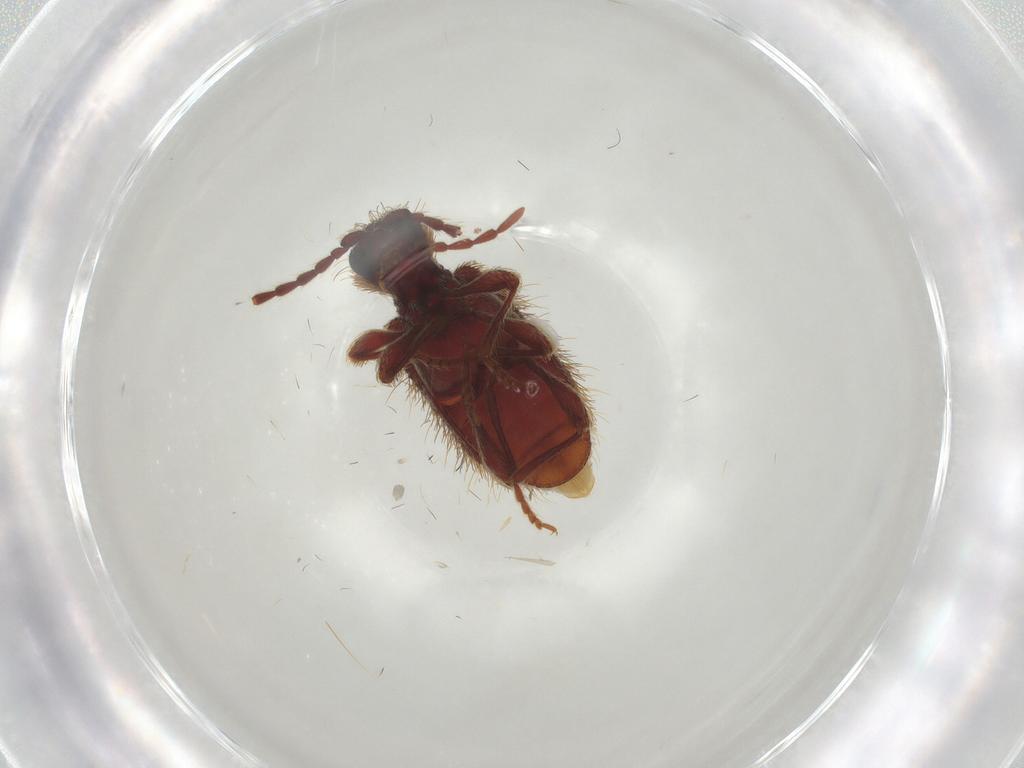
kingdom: Animalia
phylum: Arthropoda
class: Insecta
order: Coleoptera
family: Ptinidae
